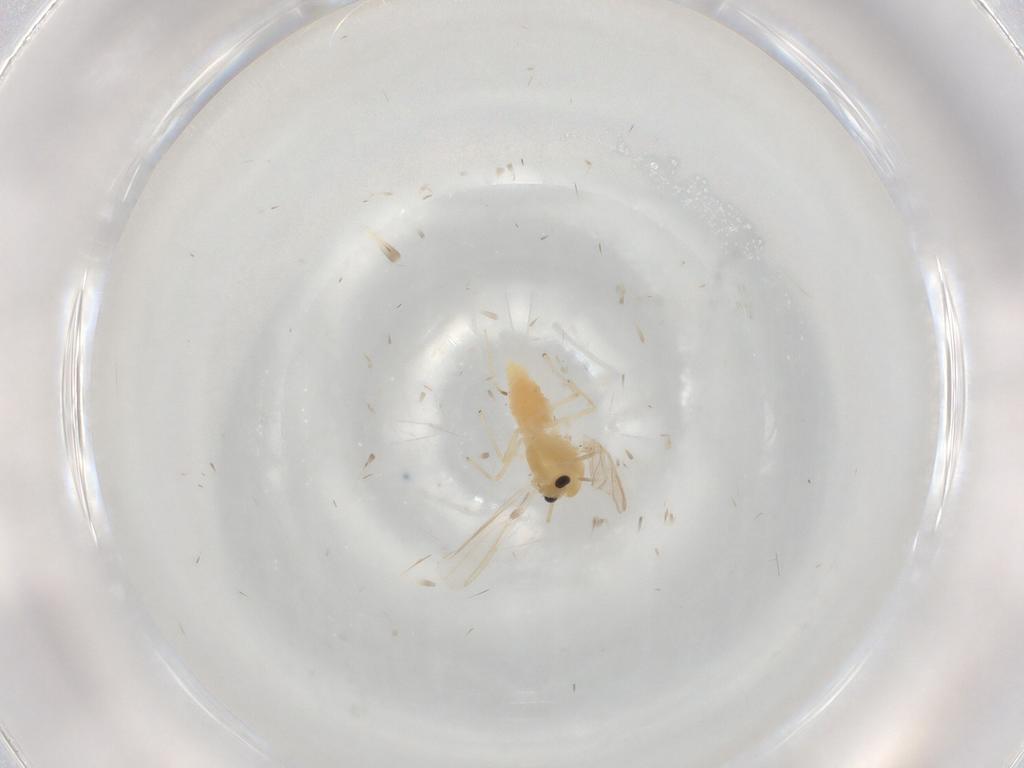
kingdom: Animalia
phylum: Arthropoda
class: Insecta
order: Diptera
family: Chironomidae
